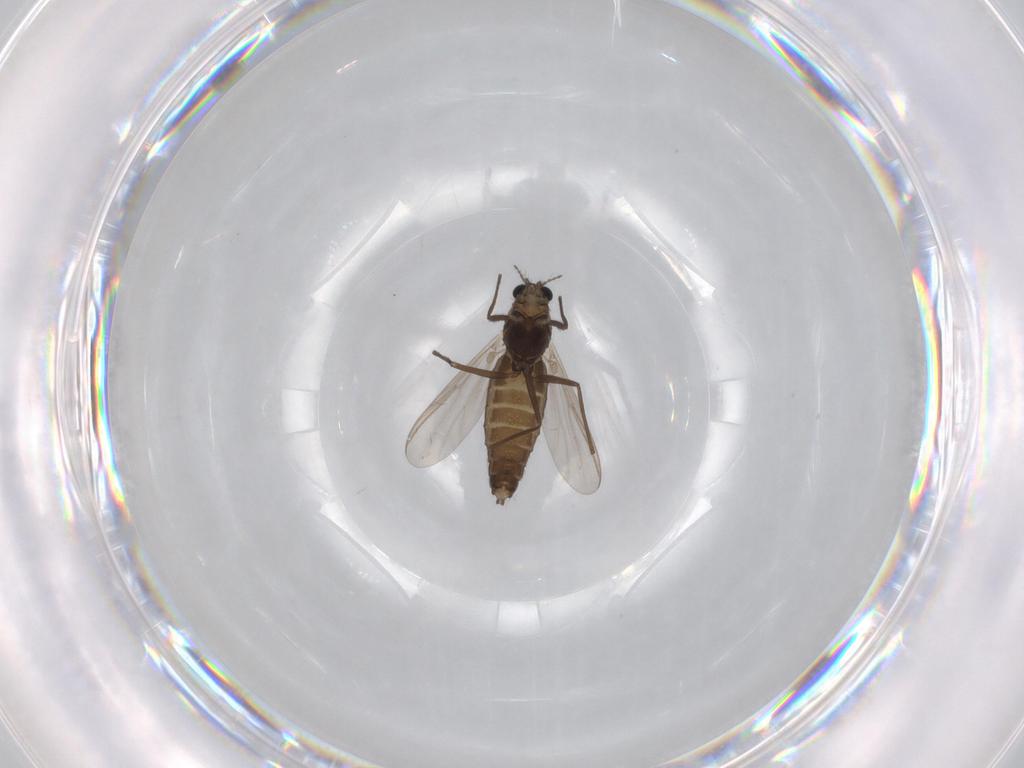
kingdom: Animalia
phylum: Arthropoda
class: Insecta
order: Diptera
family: Chironomidae
